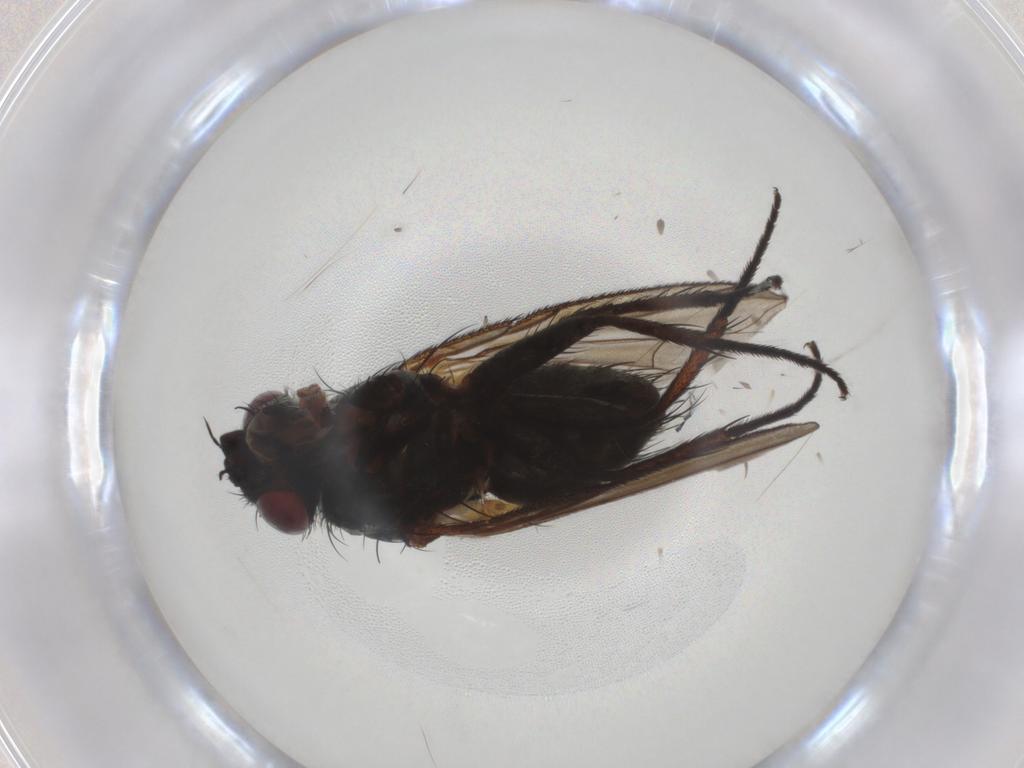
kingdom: Animalia
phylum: Arthropoda
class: Insecta
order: Diptera
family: Tachinidae
